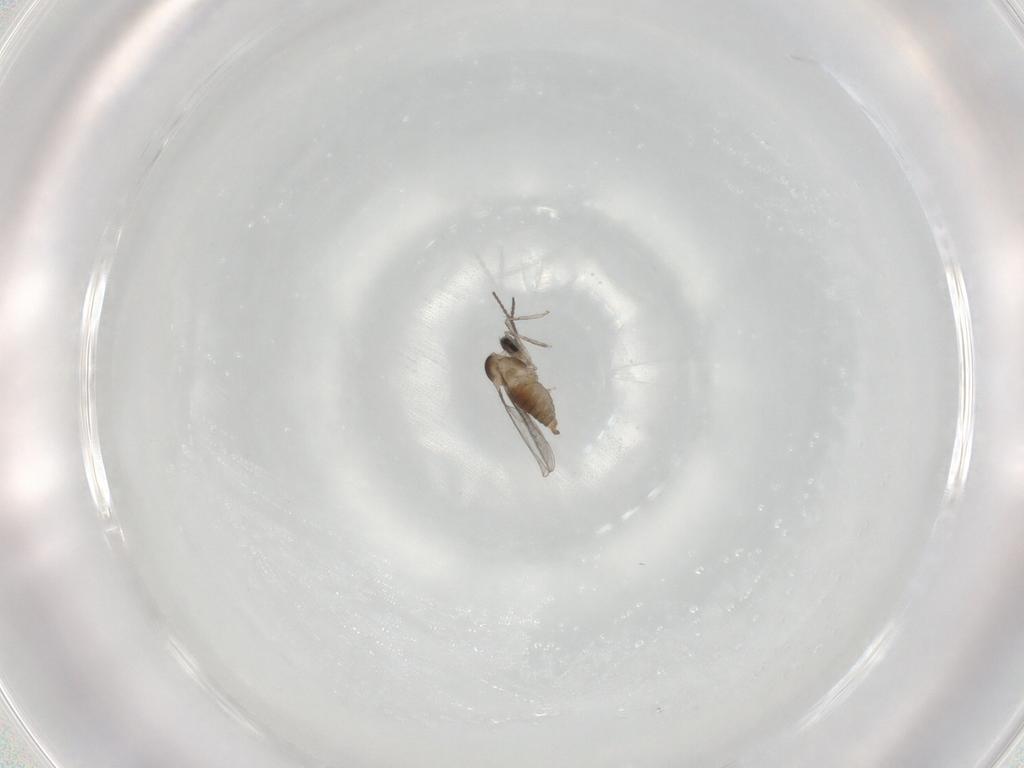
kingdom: Animalia
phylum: Arthropoda
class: Insecta
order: Diptera
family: Cecidomyiidae
